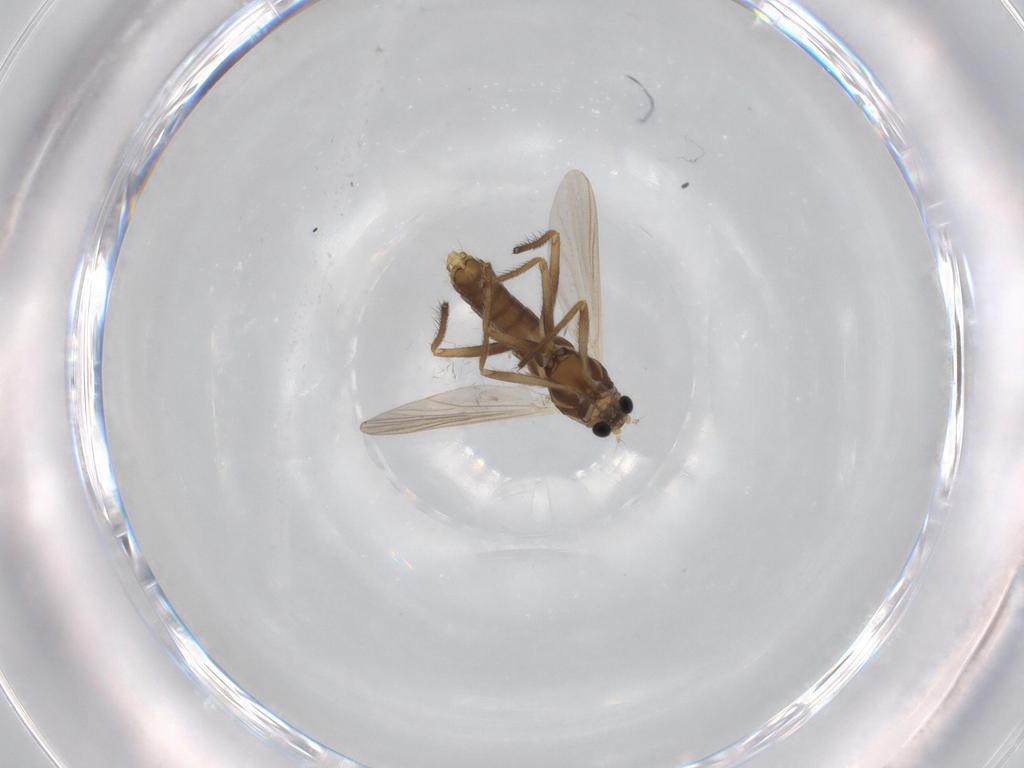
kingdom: Animalia
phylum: Arthropoda
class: Insecta
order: Diptera
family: Chironomidae
